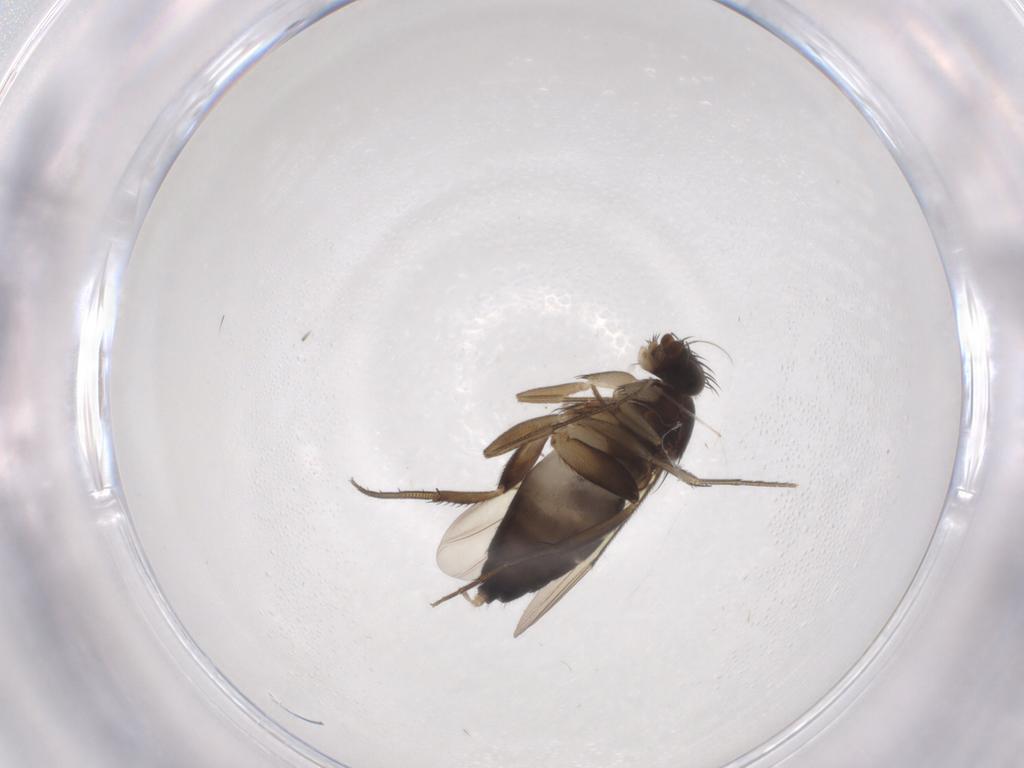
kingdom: Animalia
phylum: Arthropoda
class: Insecta
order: Diptera
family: Phoridae
